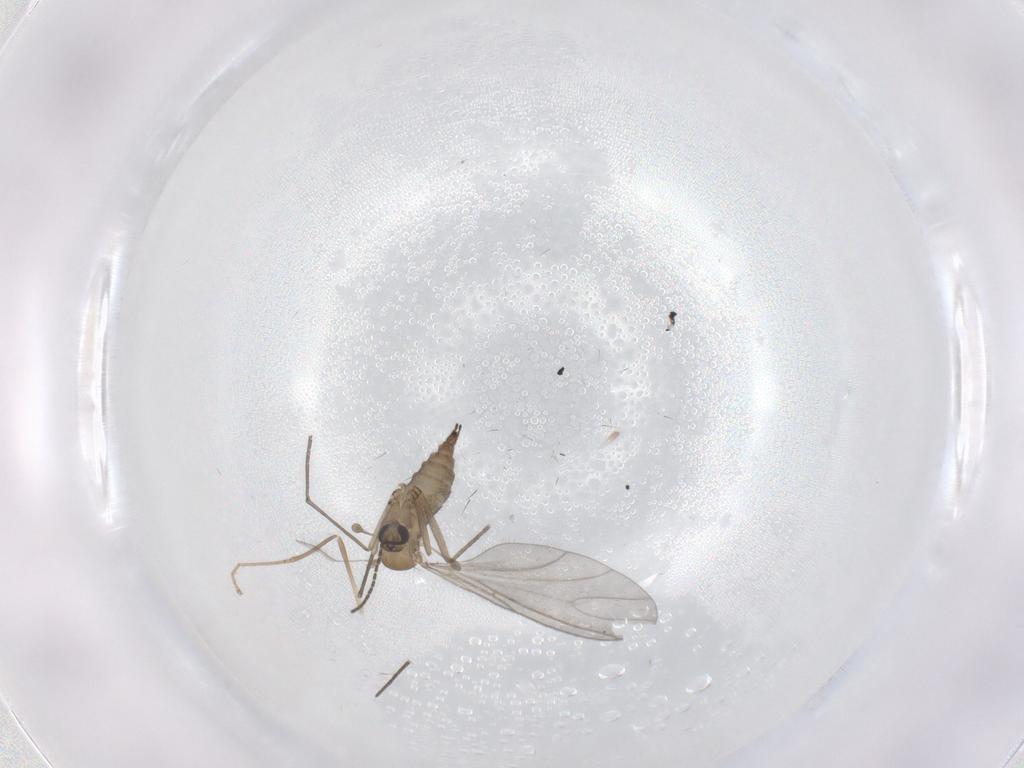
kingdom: Animalia
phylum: Arthropoda
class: Insecta
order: Diptera
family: Sciaridae
